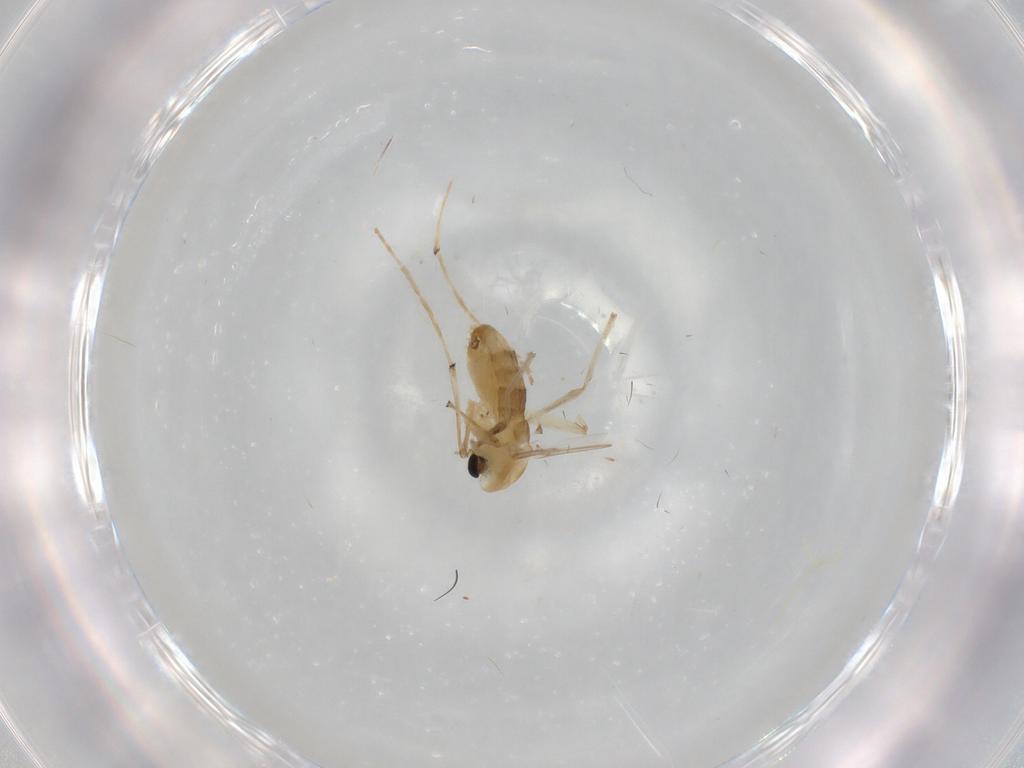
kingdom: Animalia
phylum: Arthropoda
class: Insecta
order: Diptera
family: Chironomidae
